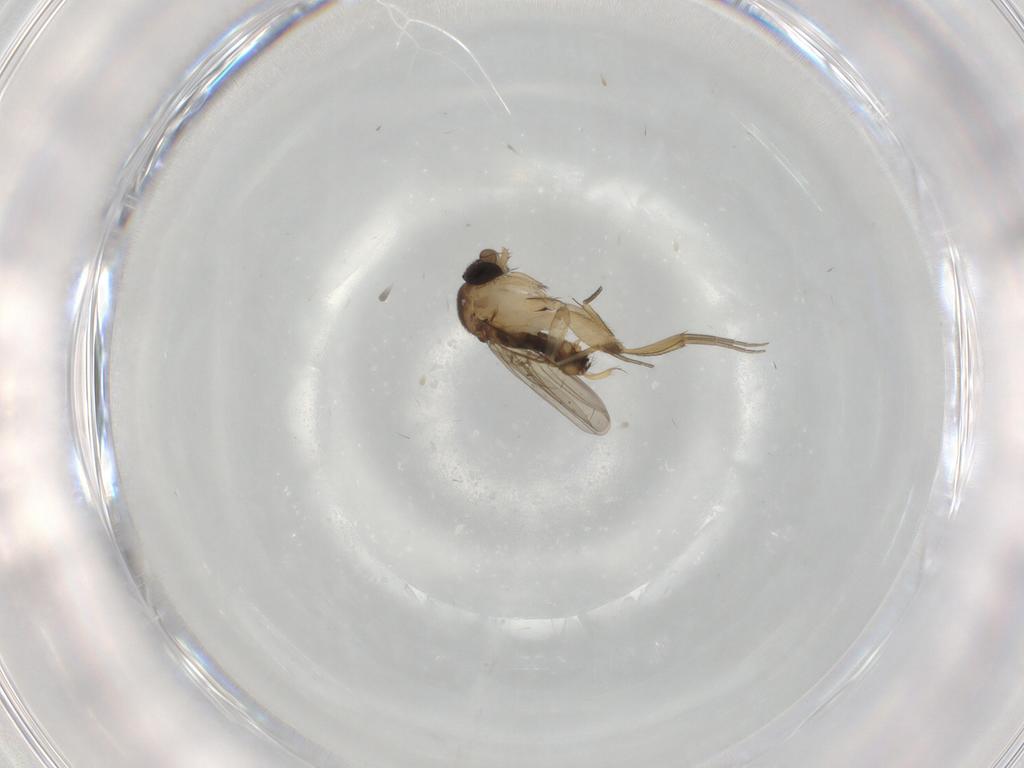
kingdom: Animalia
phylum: Arthropoda
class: Insecta
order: Diptera
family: Phoridae
